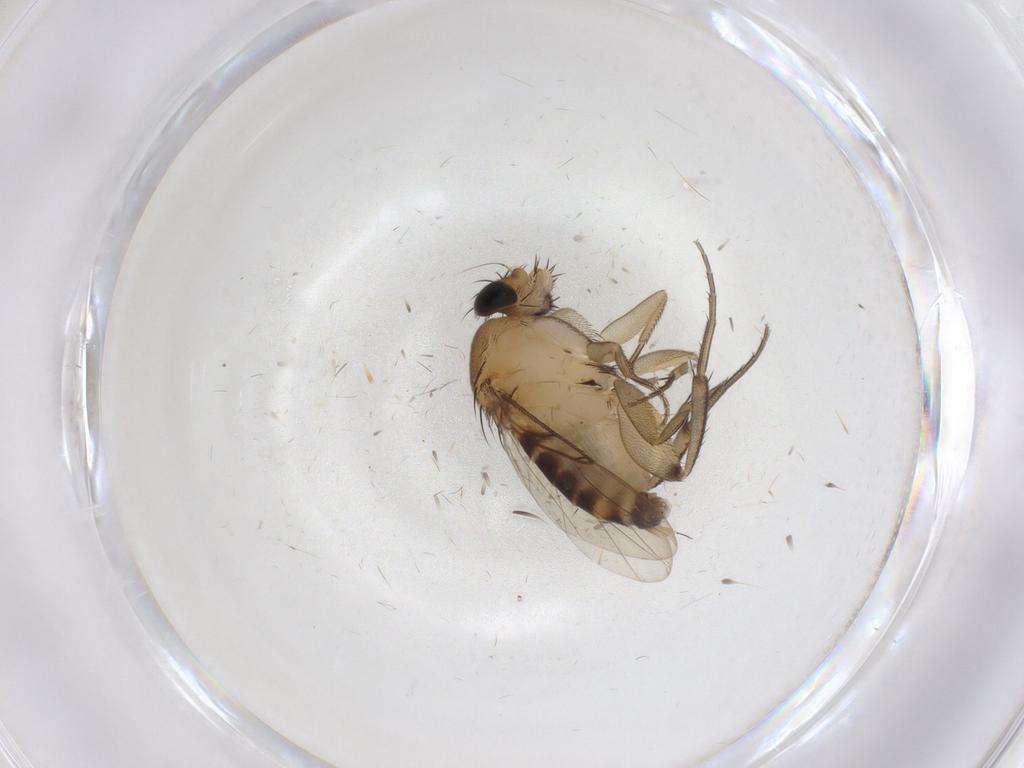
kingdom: Animalia
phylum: Arthropoda
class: Insecta
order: Diptera
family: Phoridae
